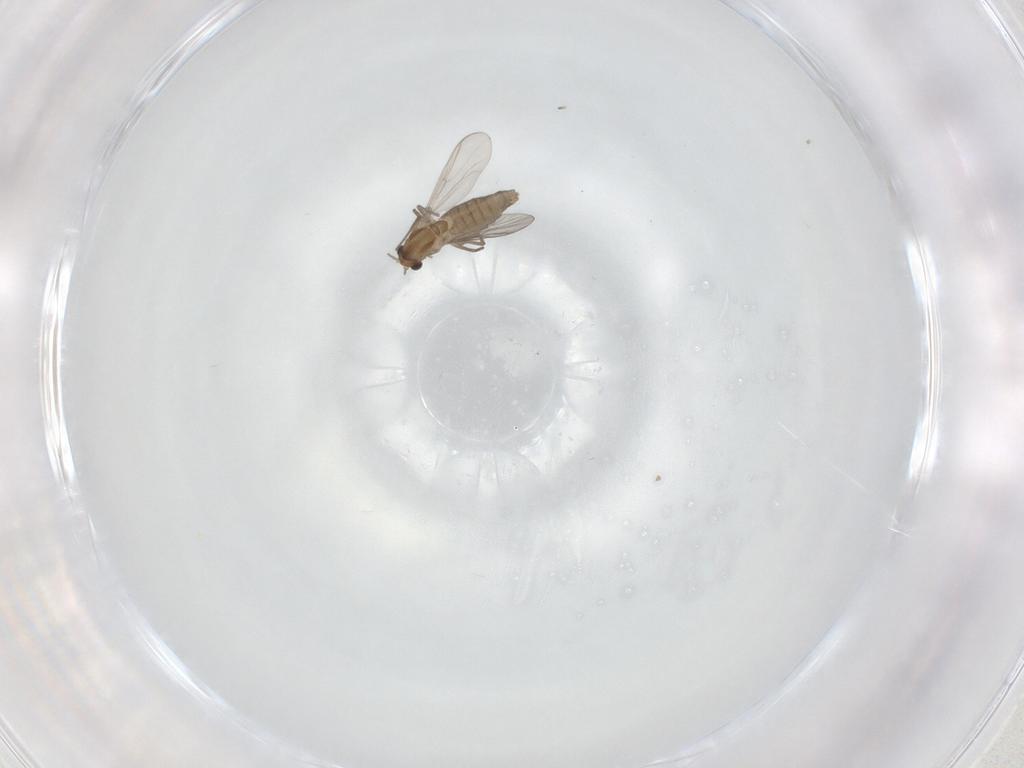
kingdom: Animalia
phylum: Arthropoda
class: Insecta
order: Diptera
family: Chironomidae
